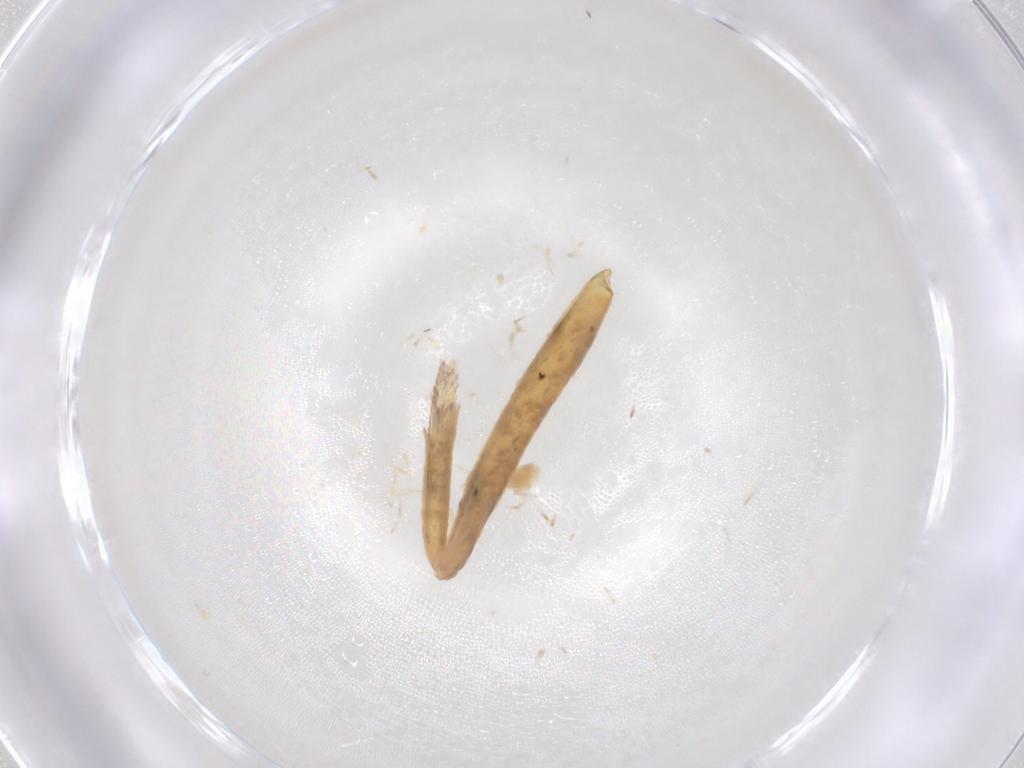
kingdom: Animalia
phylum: Arthropoda
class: Insecta
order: Lepidoptera
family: Geometridae
